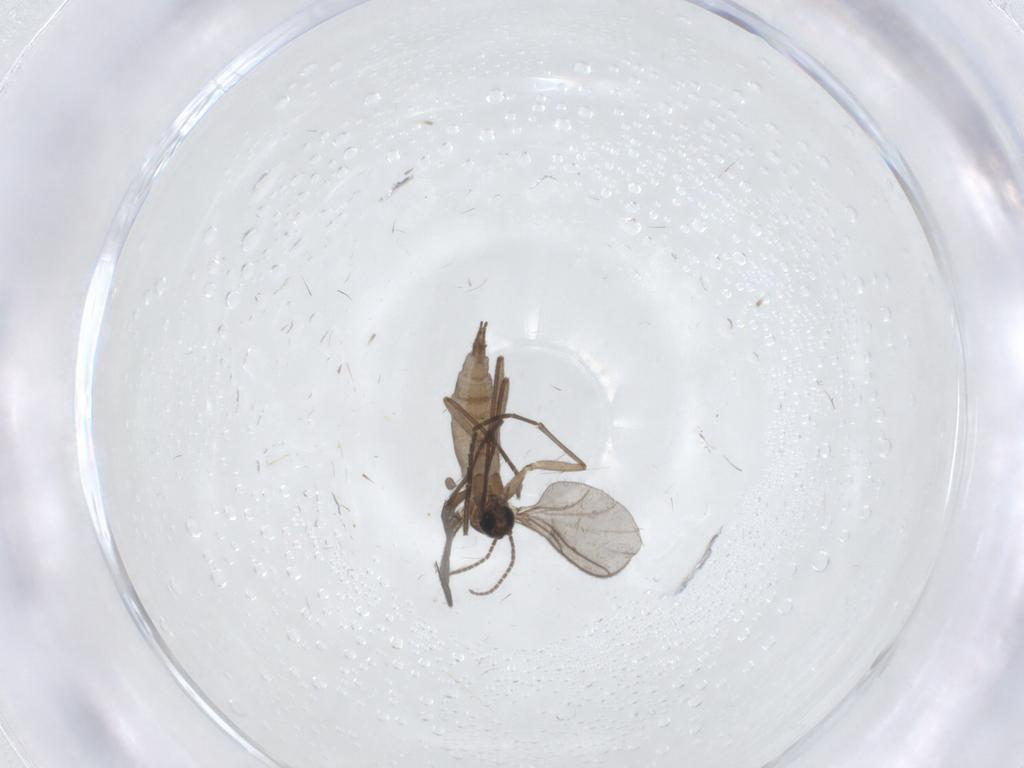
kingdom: Animalia
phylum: Arthropoda
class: Insecta
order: Diptera
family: Sciaridae
